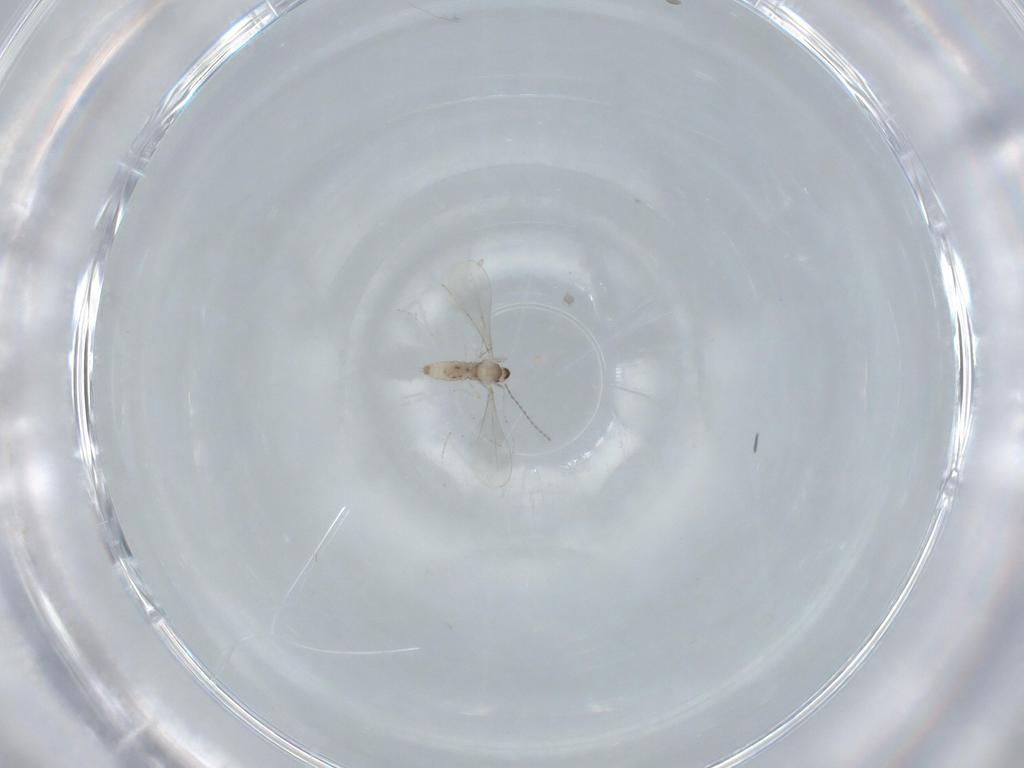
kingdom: Animalia
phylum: Arthropoda
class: Insecta
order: Diptera
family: Cecidomyiidae
